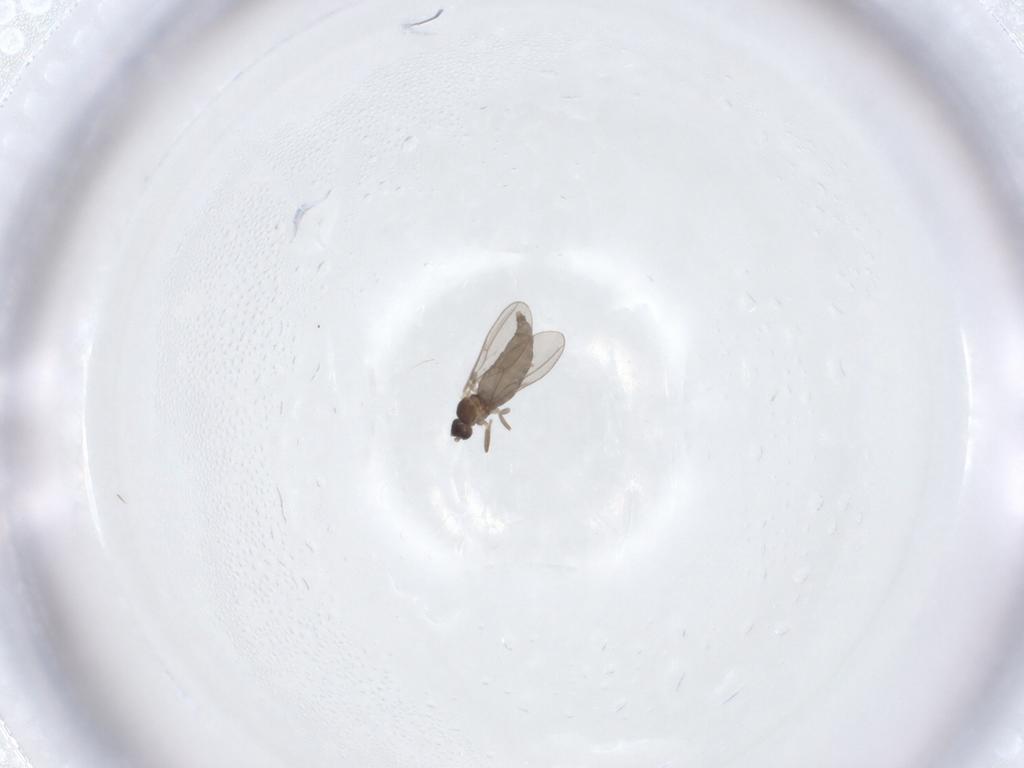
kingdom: Animalia
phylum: Arthropoda
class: Insecta
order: Diptera
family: Cecidomyiidae
